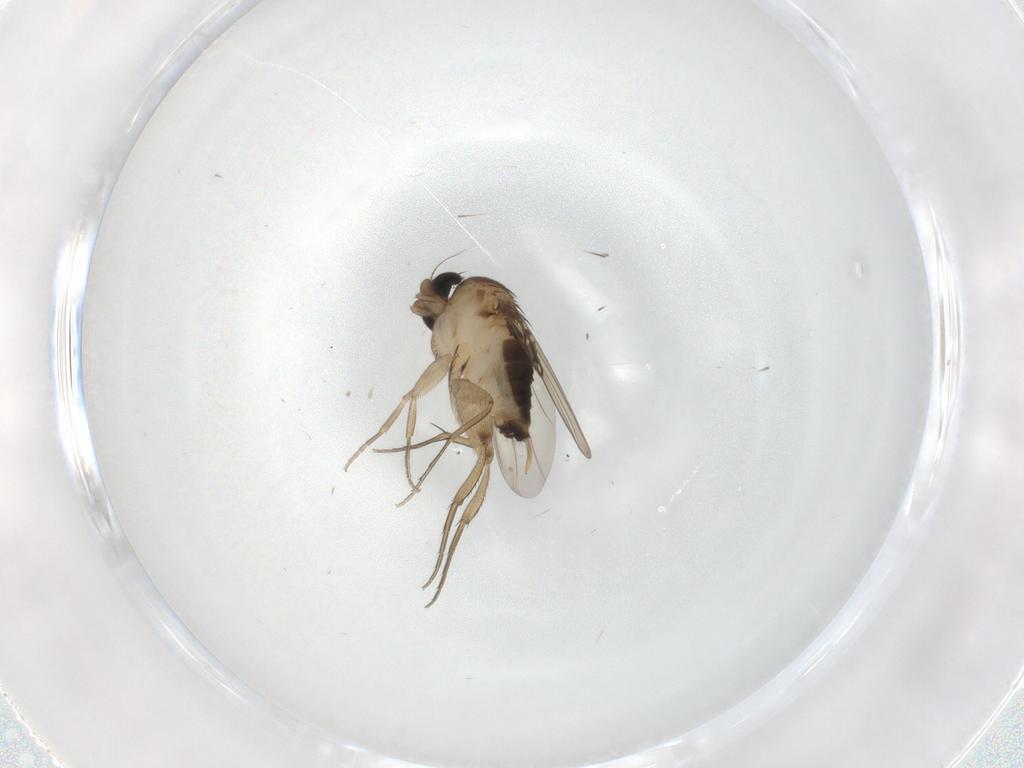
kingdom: Animalia
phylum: Arthropoda
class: Insecta
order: Diptera
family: Phoridae
